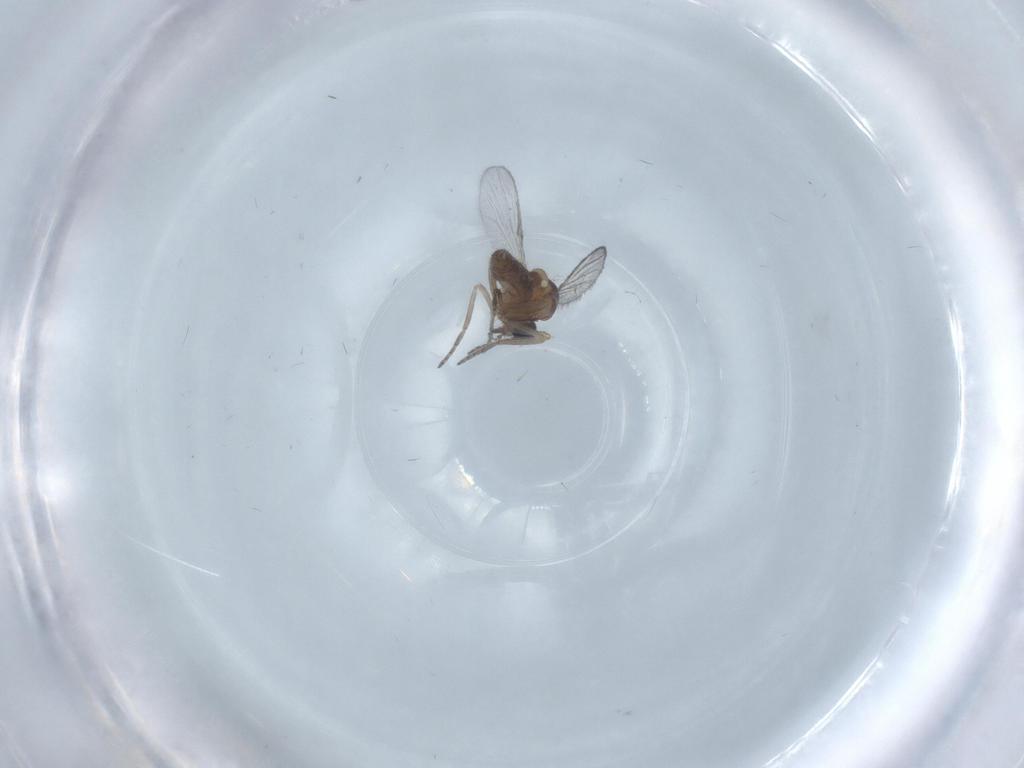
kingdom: Animalia
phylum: Arthropoda
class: Insecta
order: Diptera
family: Chironomidae
